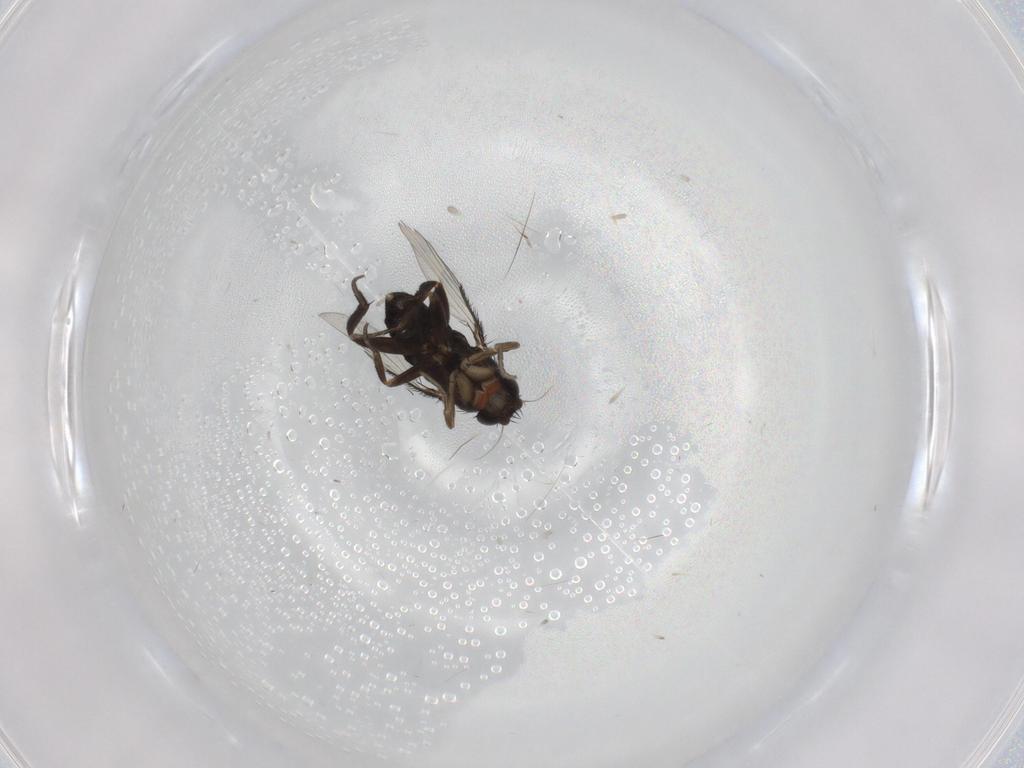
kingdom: Animalia
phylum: Arthropoda
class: Insecta
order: Diptera
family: Phoridae
